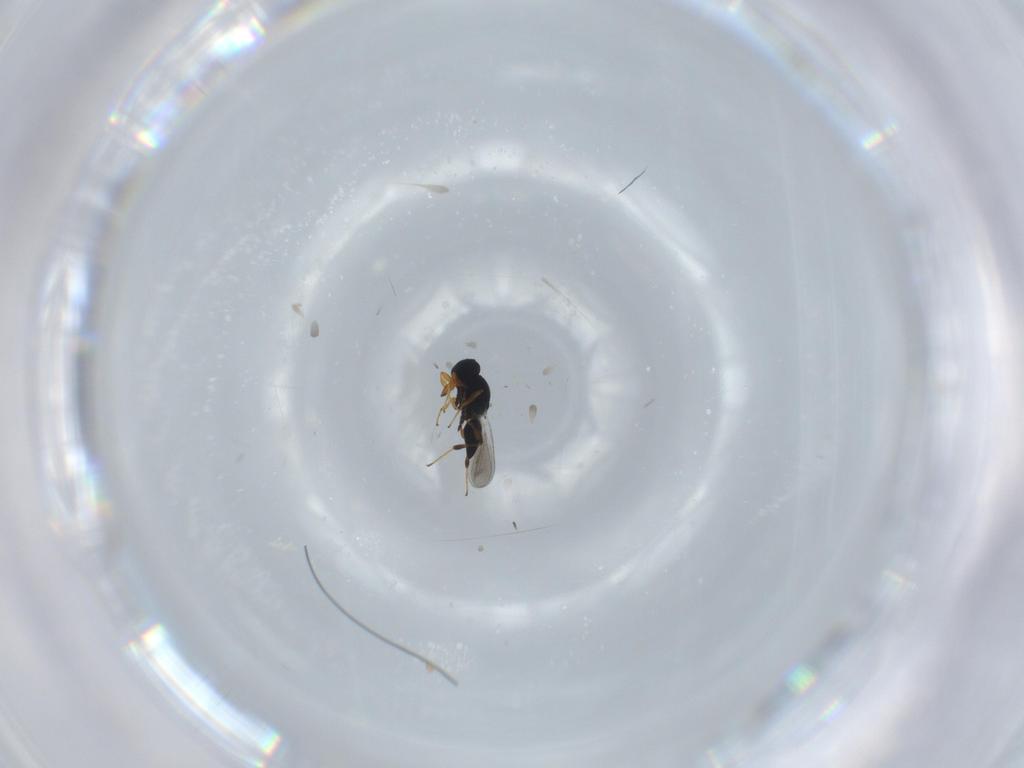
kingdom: Animalia
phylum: Arthropoda
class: Insecta
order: Hymenoptera
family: Platygastridae
